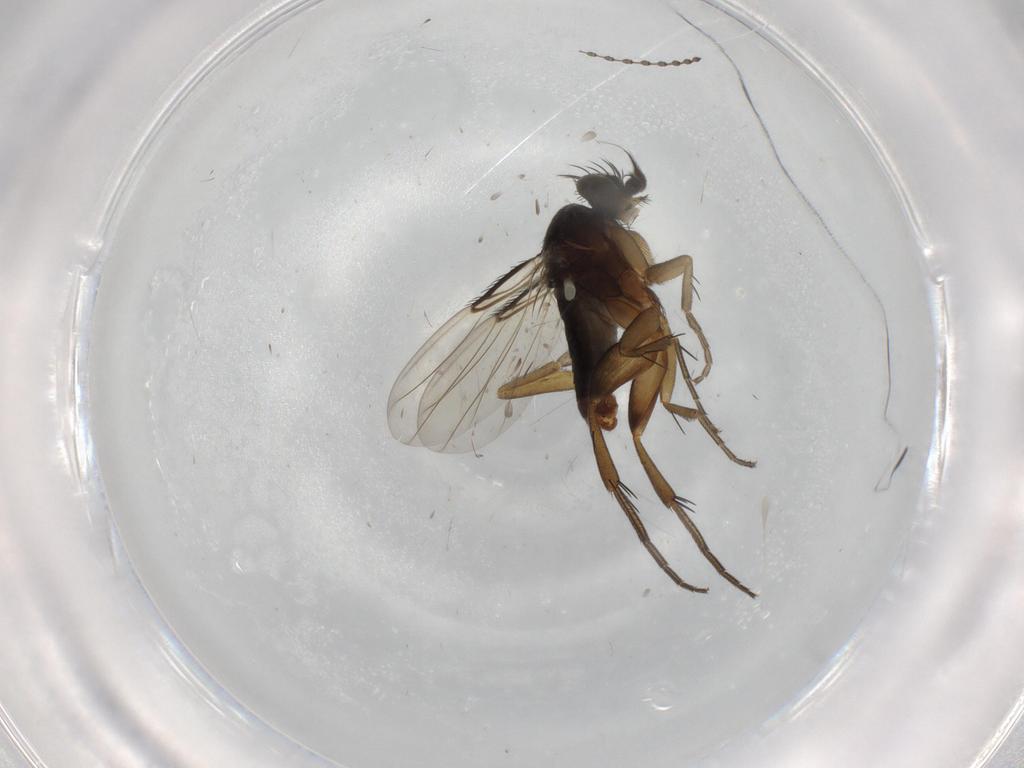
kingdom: Animalia
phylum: Arthropoda
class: Insecta
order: Diptera
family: Phoridae
